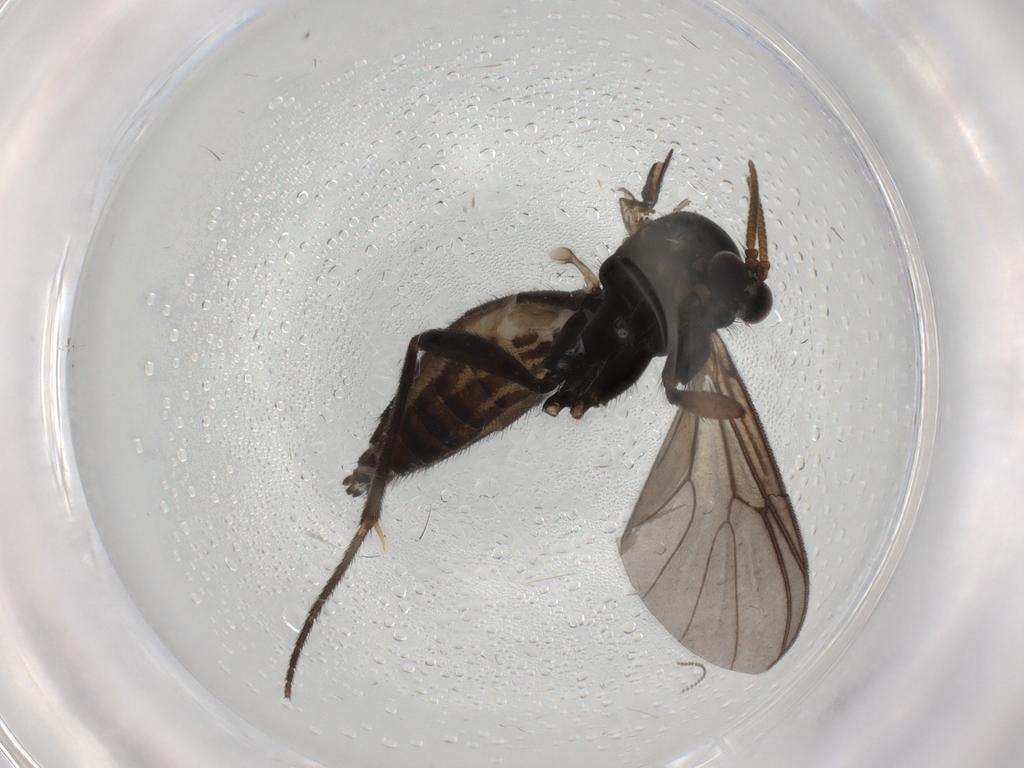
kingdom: Animalia
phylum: Arthropoda
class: Insecta
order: Diptera
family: Mycetophilidae
